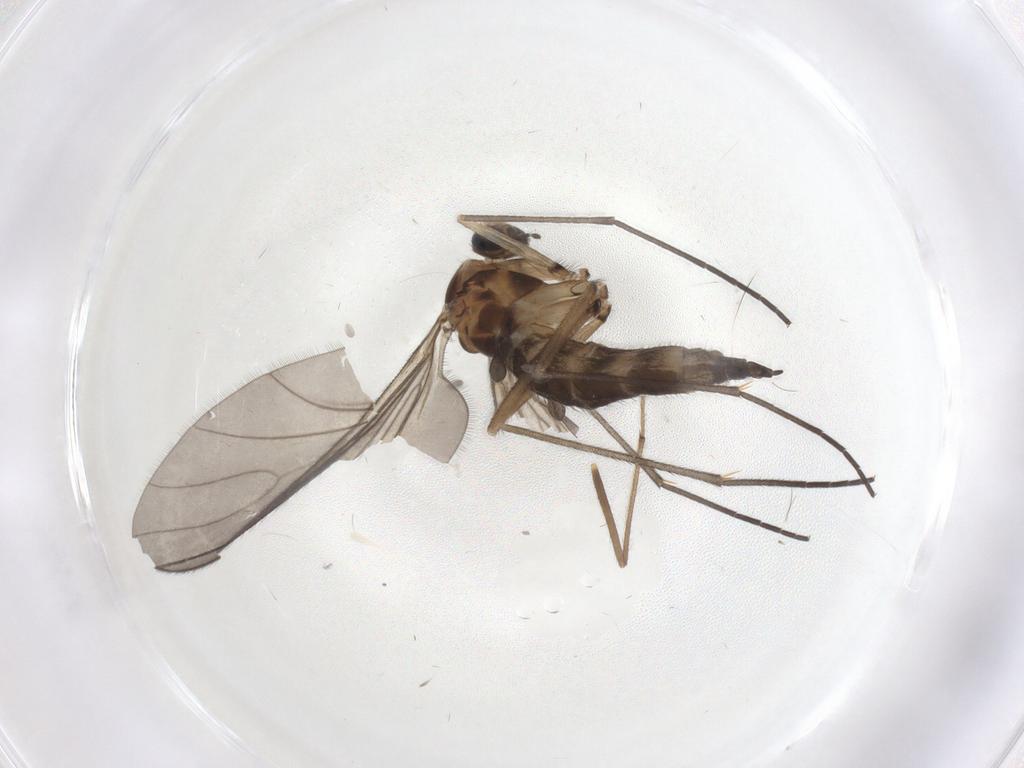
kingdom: Animalia
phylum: Arthropoda
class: Insecta
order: Diptera
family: Sciaridae
